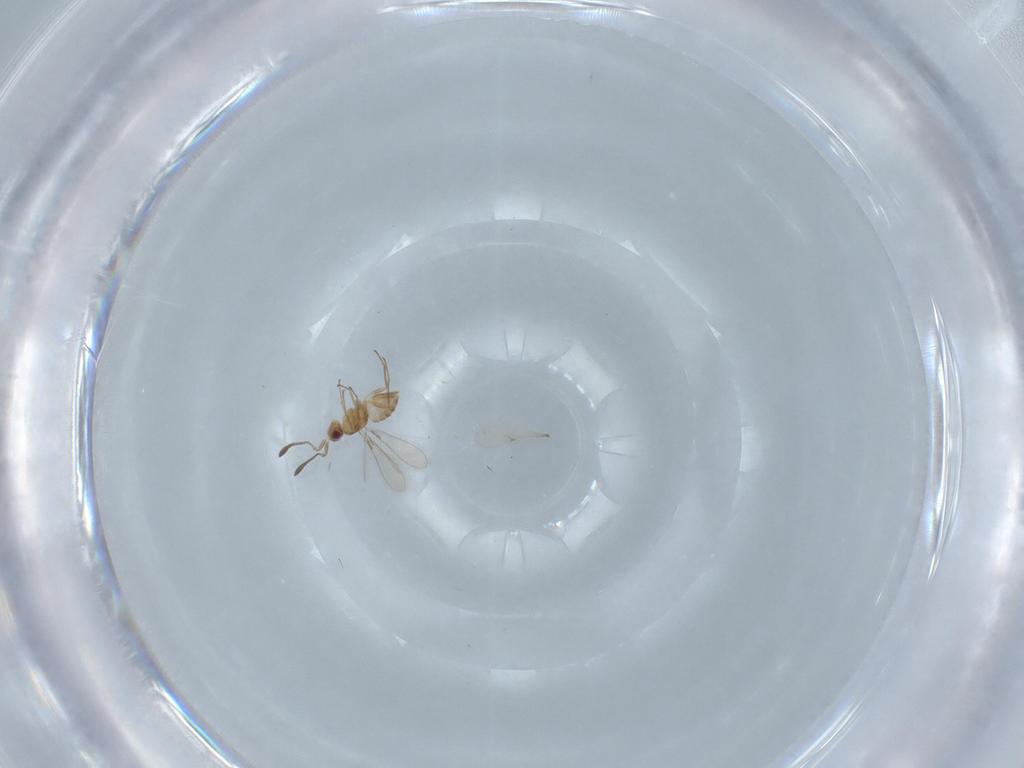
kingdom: Animalia
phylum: Arthropoda
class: Insecta
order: Hymenoptera
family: Mymaridae
